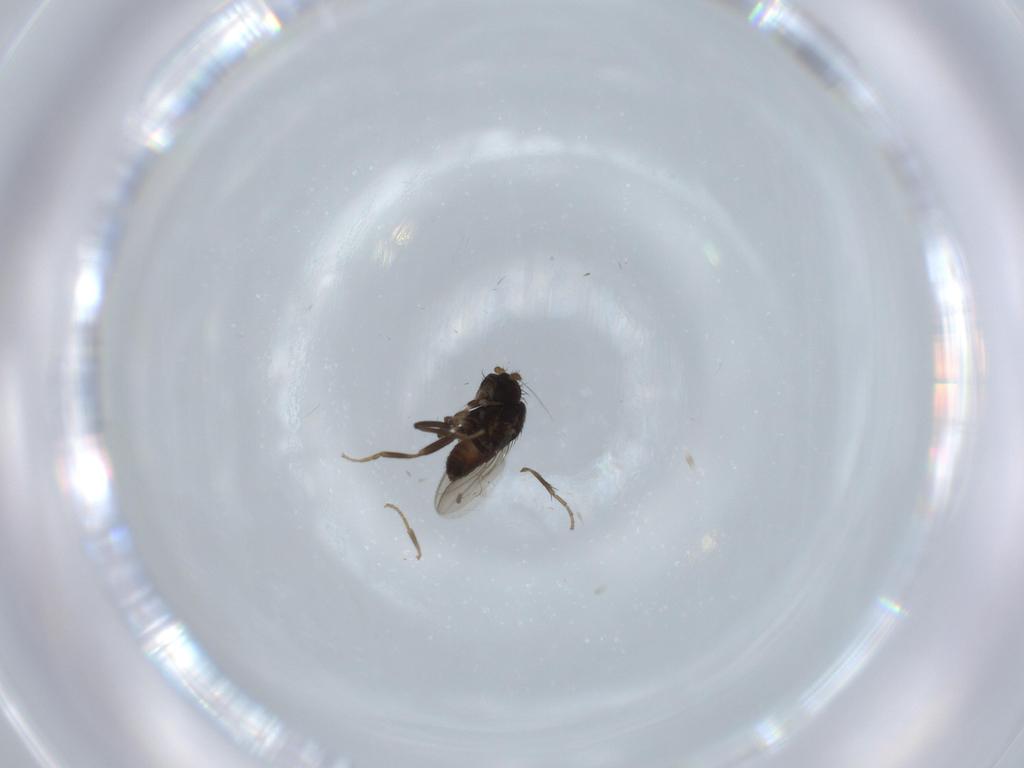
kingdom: Animalia
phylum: Arthropoda
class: Insecta
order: Diptera
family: Sphaeroceridae
